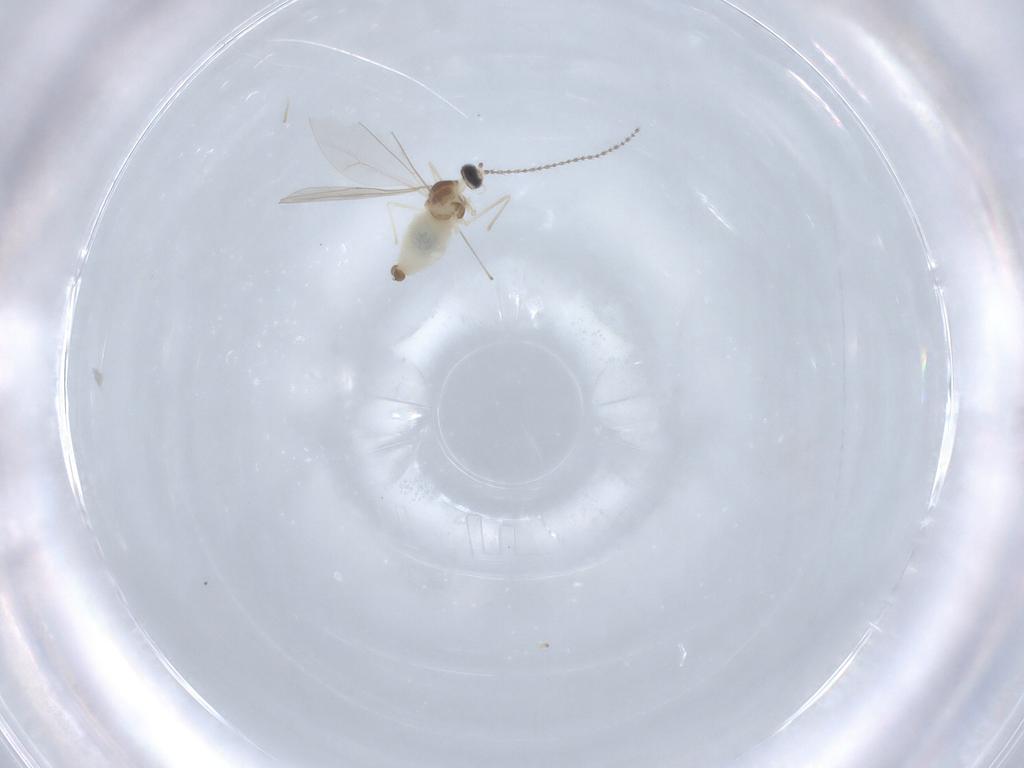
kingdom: Animalia
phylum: Arthropoda
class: Insecta
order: Diptera
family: Cecidomyiidae
